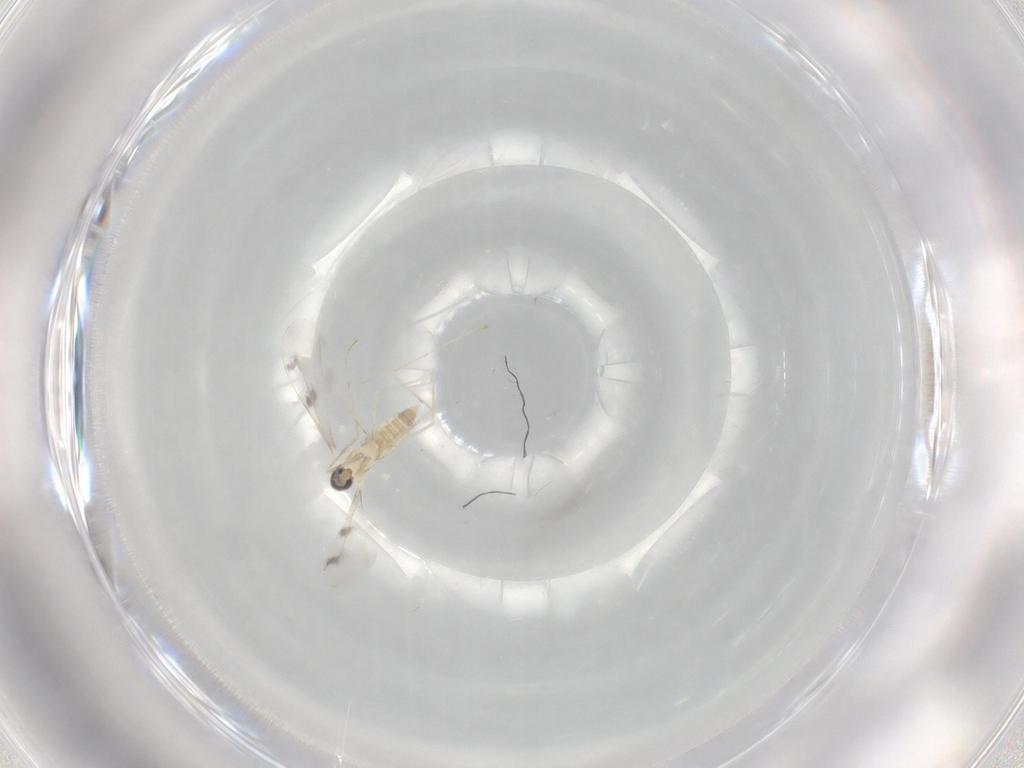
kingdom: Animalia
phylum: Arthropoda
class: Insecta
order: Diptera
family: Cecidomyiidae
